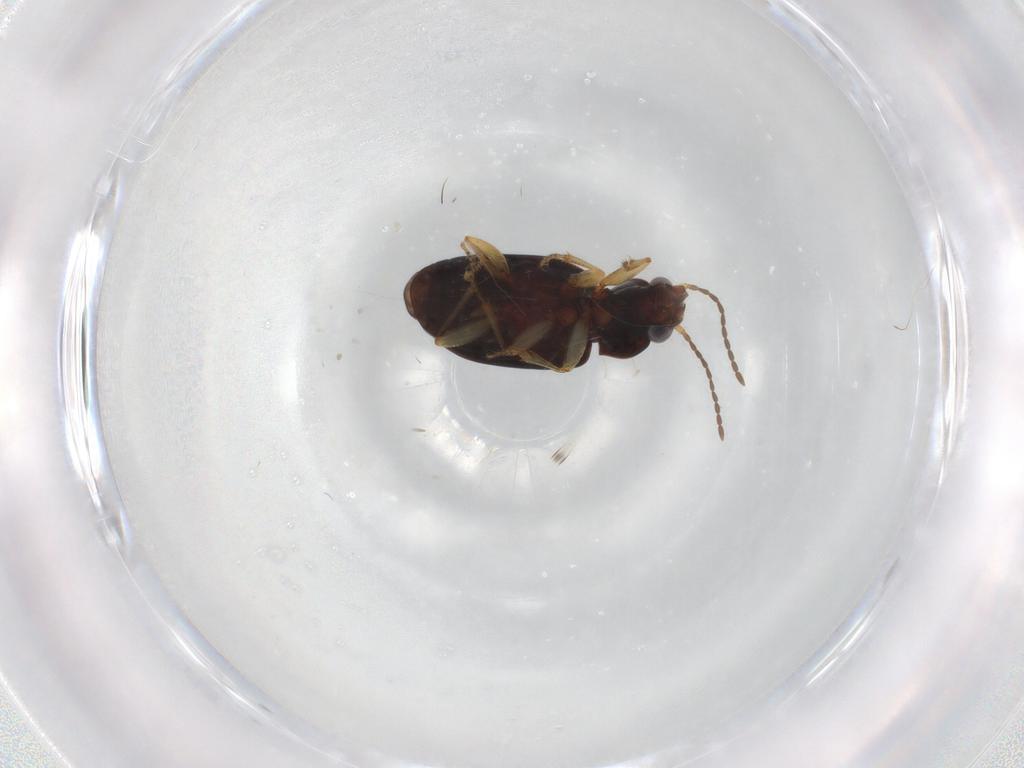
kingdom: Animalia
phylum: Arthropoda
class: Insecta
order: Coleoptera
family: Carabidae
